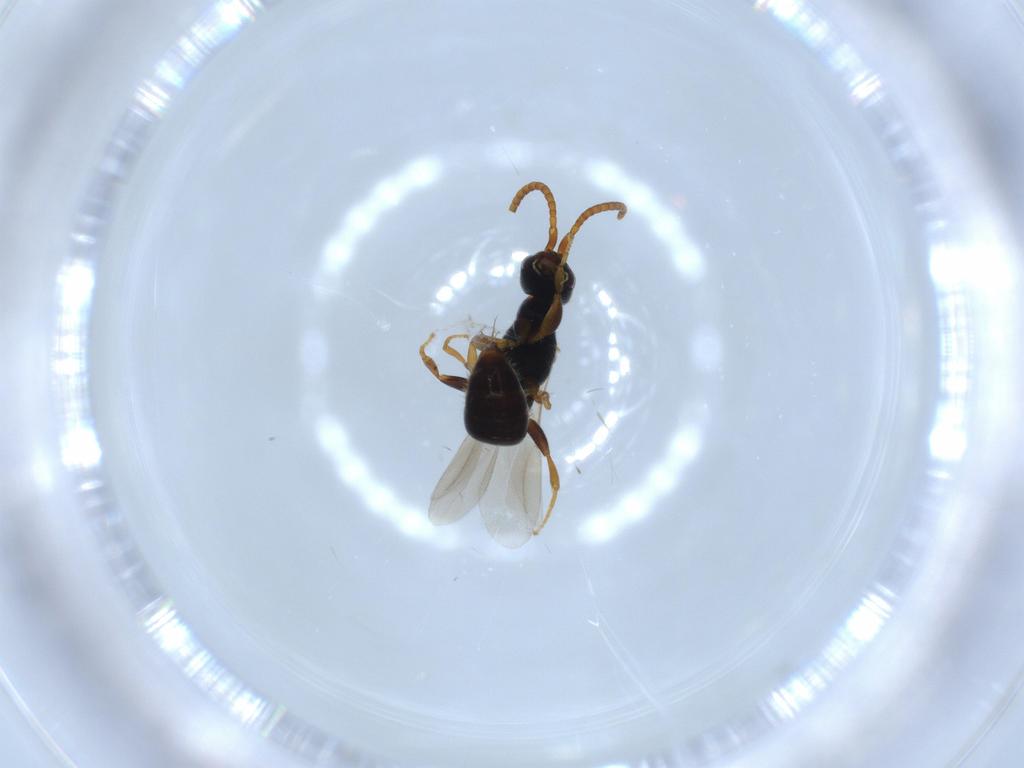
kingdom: Animalia
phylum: Arthropoda
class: Insecta
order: Hymenoptera
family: Bethylidae
